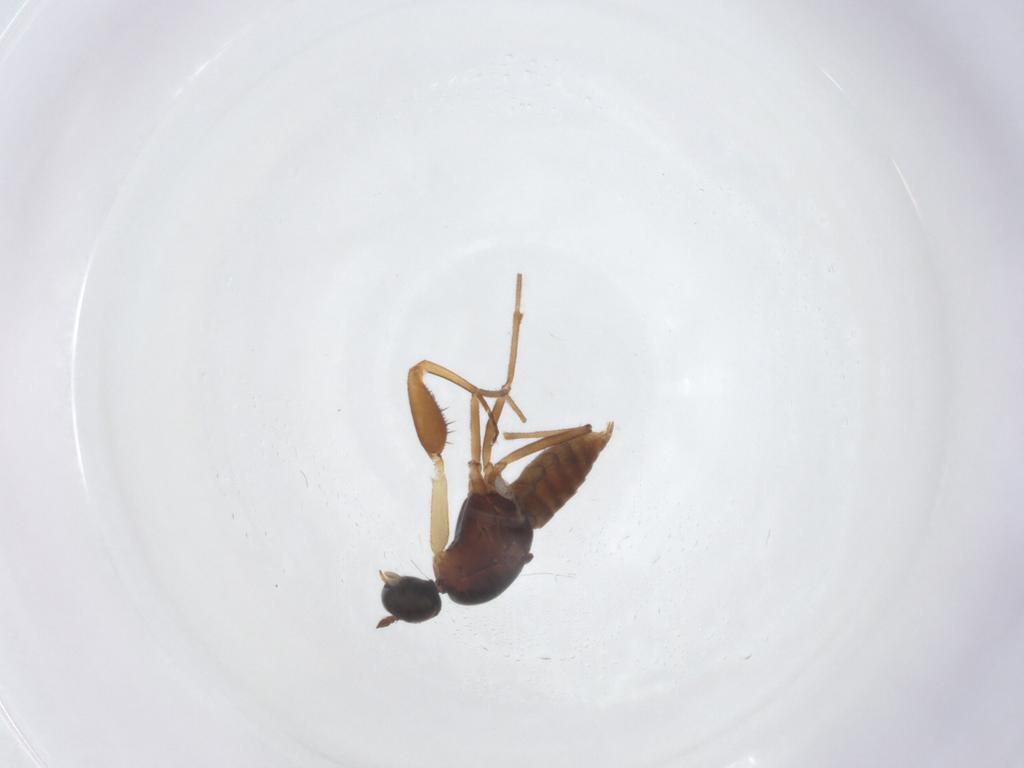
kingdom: Animalia
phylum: Arthropoda
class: Insecta
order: Diptera
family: Empididae
